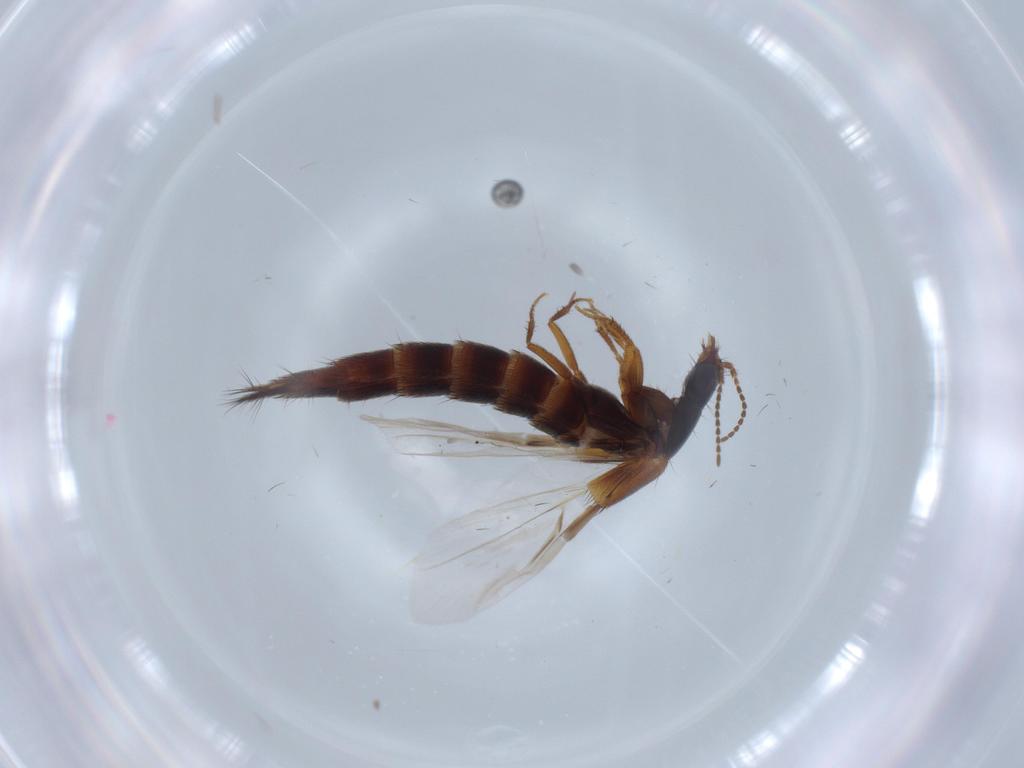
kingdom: Animalia
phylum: Arthropoda
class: Insecta
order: Coleoptera
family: Staphylinidae
